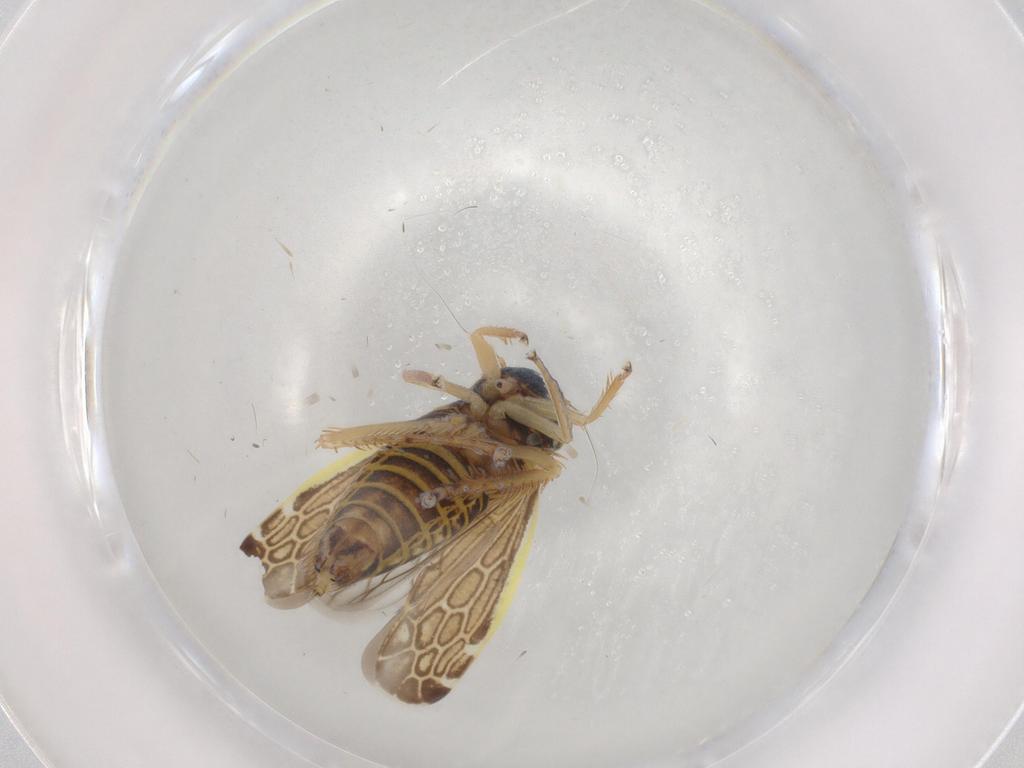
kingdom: Animalia
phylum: Arthropoda
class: Insecta
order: Hemiptera
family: Cicadellidae
